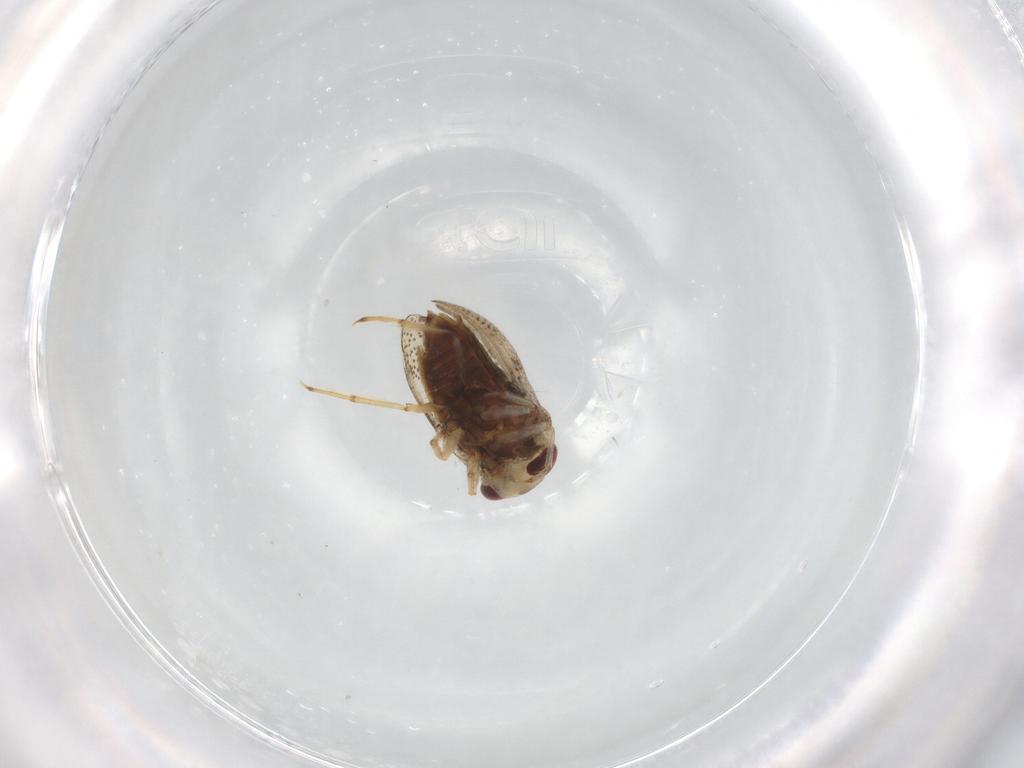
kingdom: Animalia
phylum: Arthropoda
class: Insecta
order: Hemiptera
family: Pleidae
